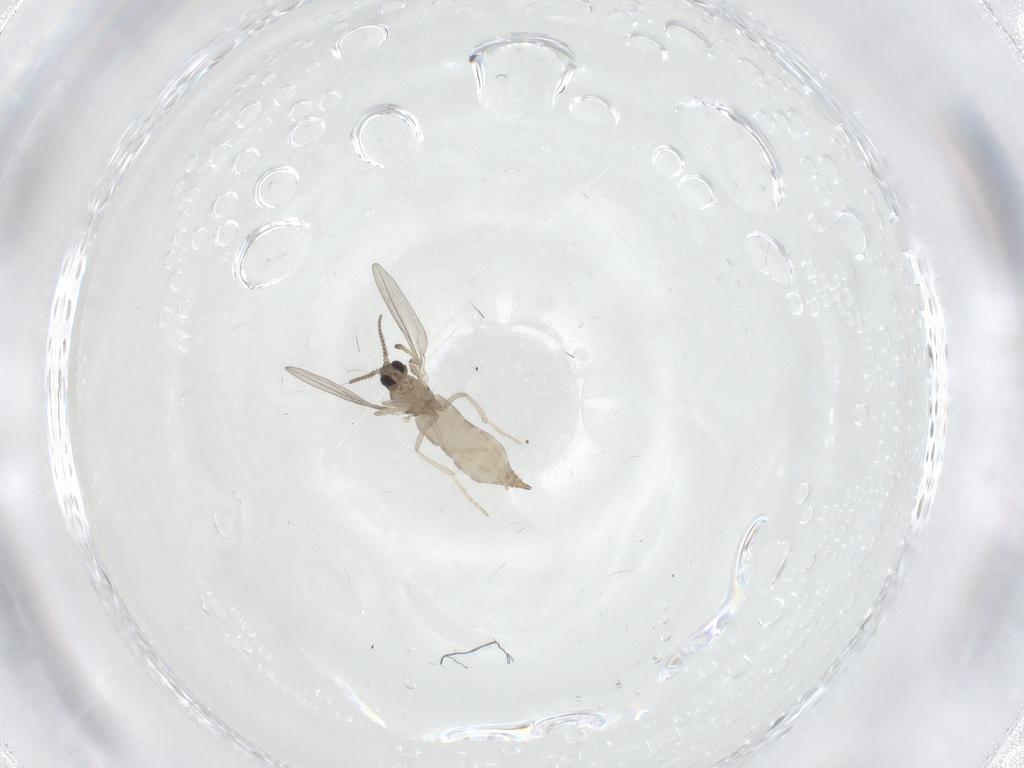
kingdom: Animalia
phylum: Arthropoda
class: Insecta
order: Diptera
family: Cecidomyiidae
